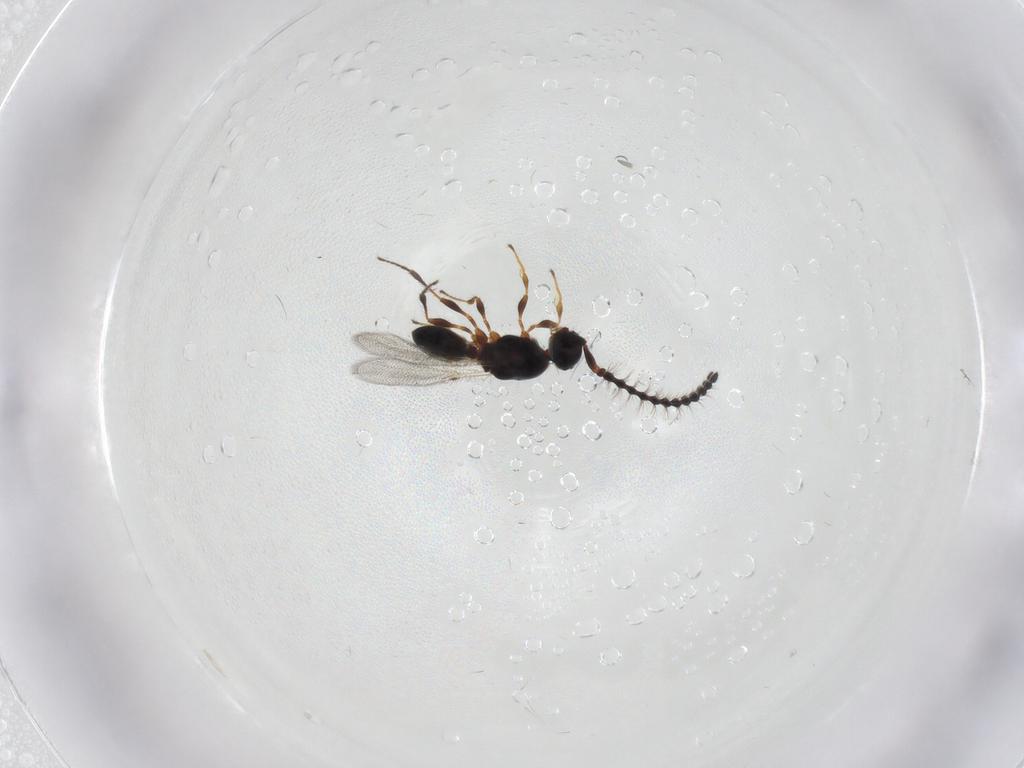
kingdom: Animalia
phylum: Arthropoda
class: Insecta
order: Hymenoptera
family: Diapriidae
